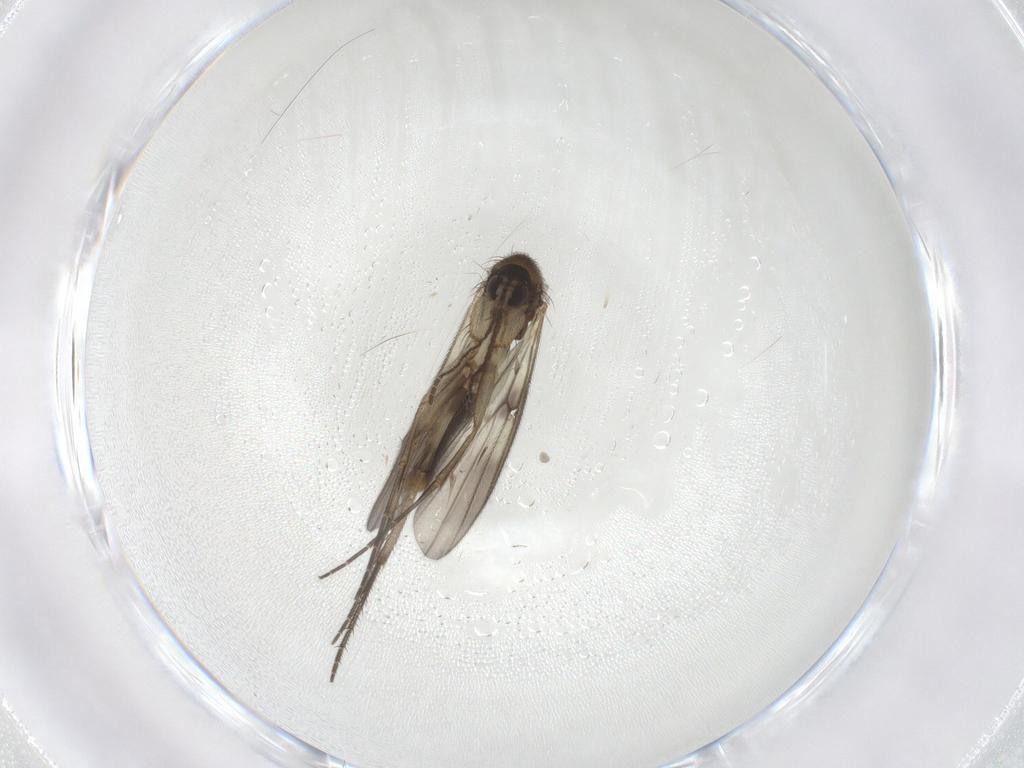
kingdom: Animalia
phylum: Arthropoda
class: Insecta
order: Diptera
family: Mycetophilidae
